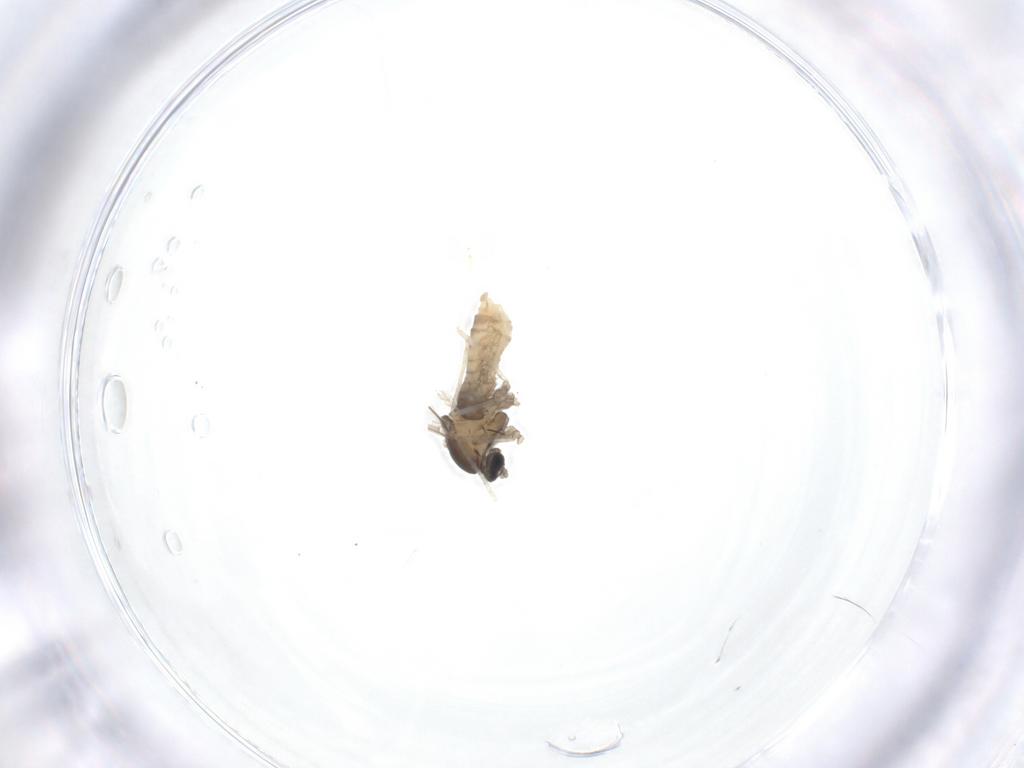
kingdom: Animalia
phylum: Arthropoda
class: Insecta
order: Diptera
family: Cecidomyiidae
